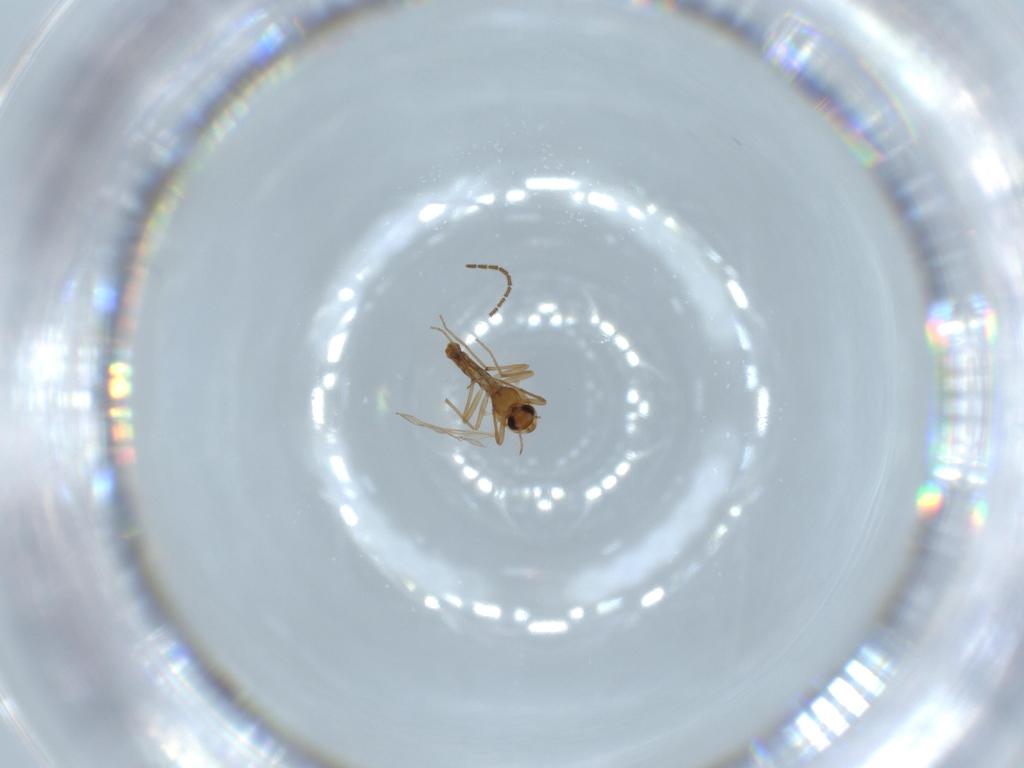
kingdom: Animalia
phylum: Arthropoda
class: Insecta
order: Diptera
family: Chironomidae
